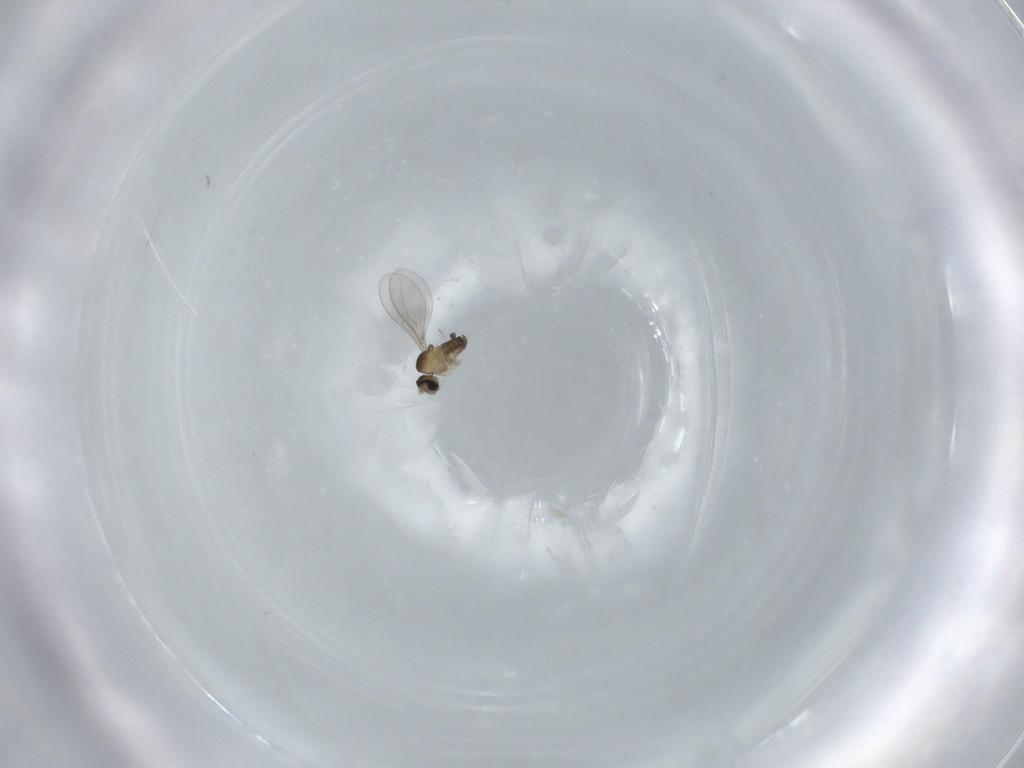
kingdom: Animalia
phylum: Arthropoda
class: Insecta
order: Diptera
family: Cecidomyiidae
